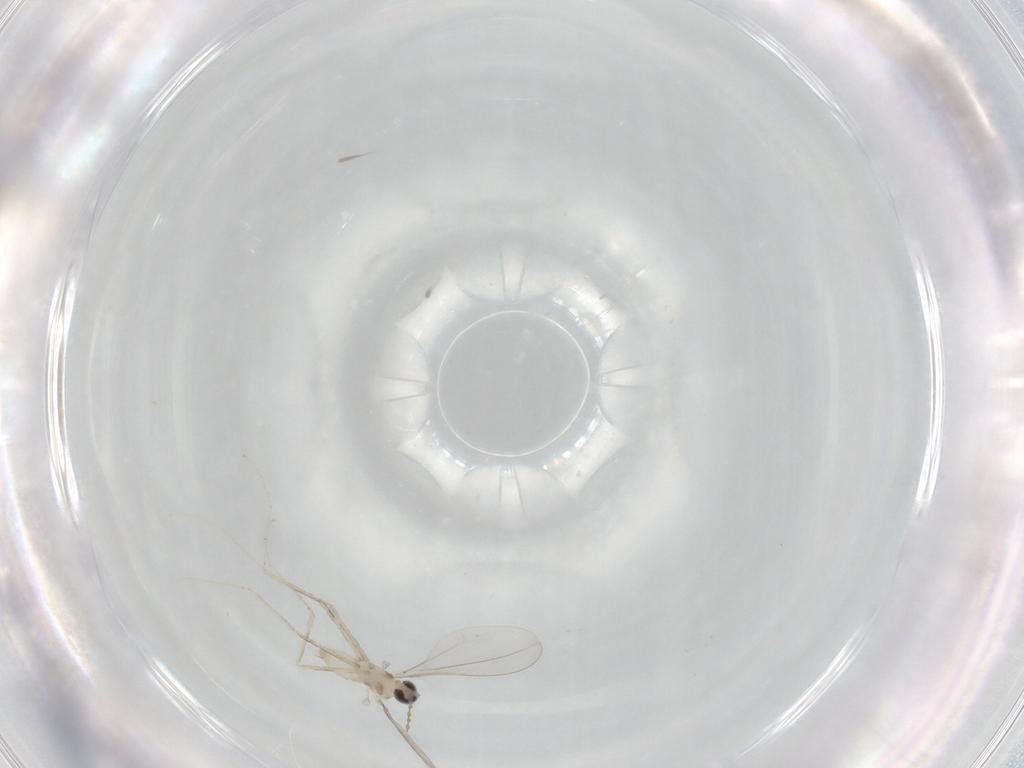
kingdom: Animalia
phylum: Arthropoda
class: Insecta
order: Diptera
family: Cecidomyiidae
